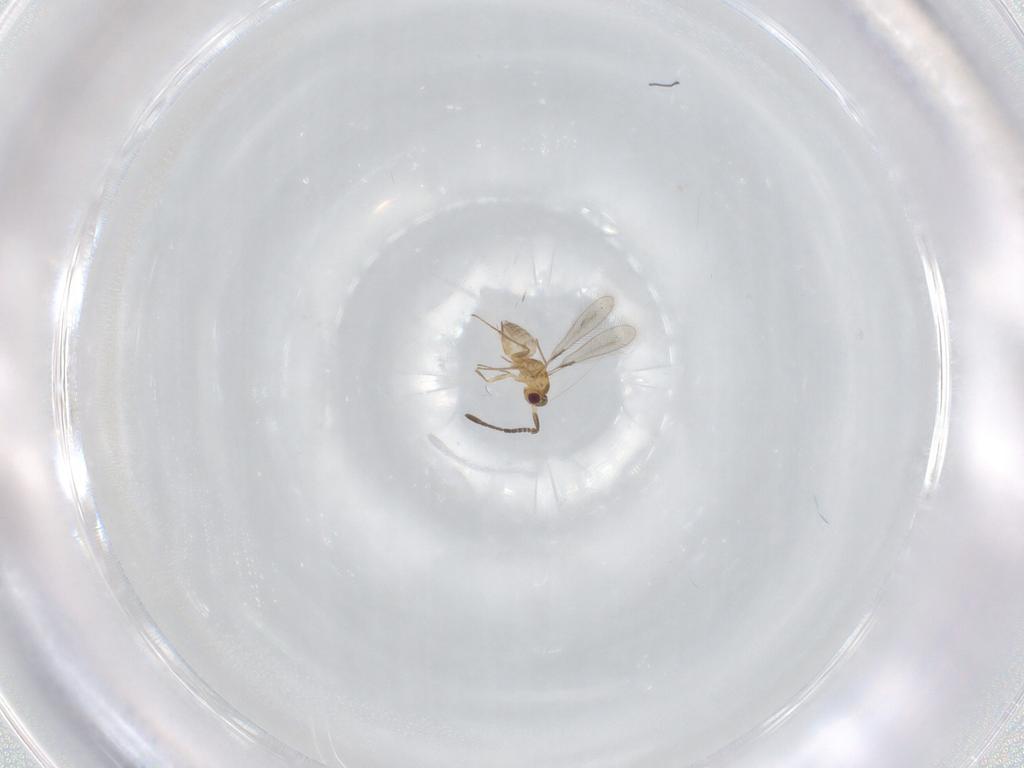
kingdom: Animalia
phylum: Arthropoda
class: Insecta
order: Hymenoptera
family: Mymaridae
